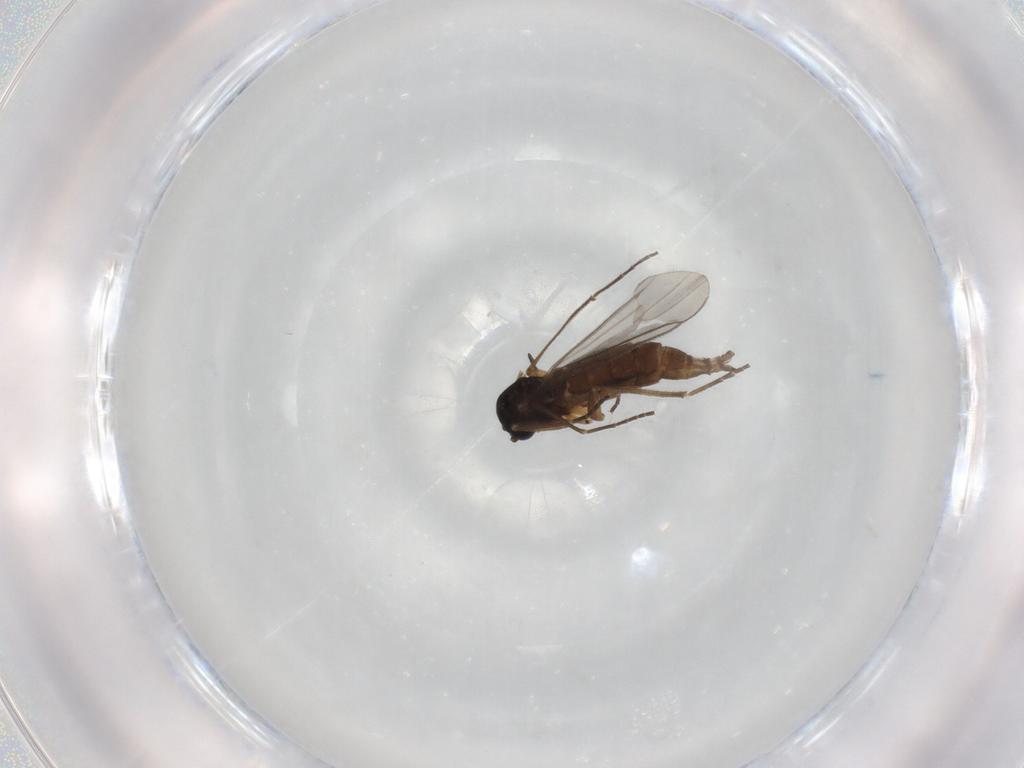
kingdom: Animalia
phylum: Arthropoda
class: Insecta
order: Diptera
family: Sciaridae
